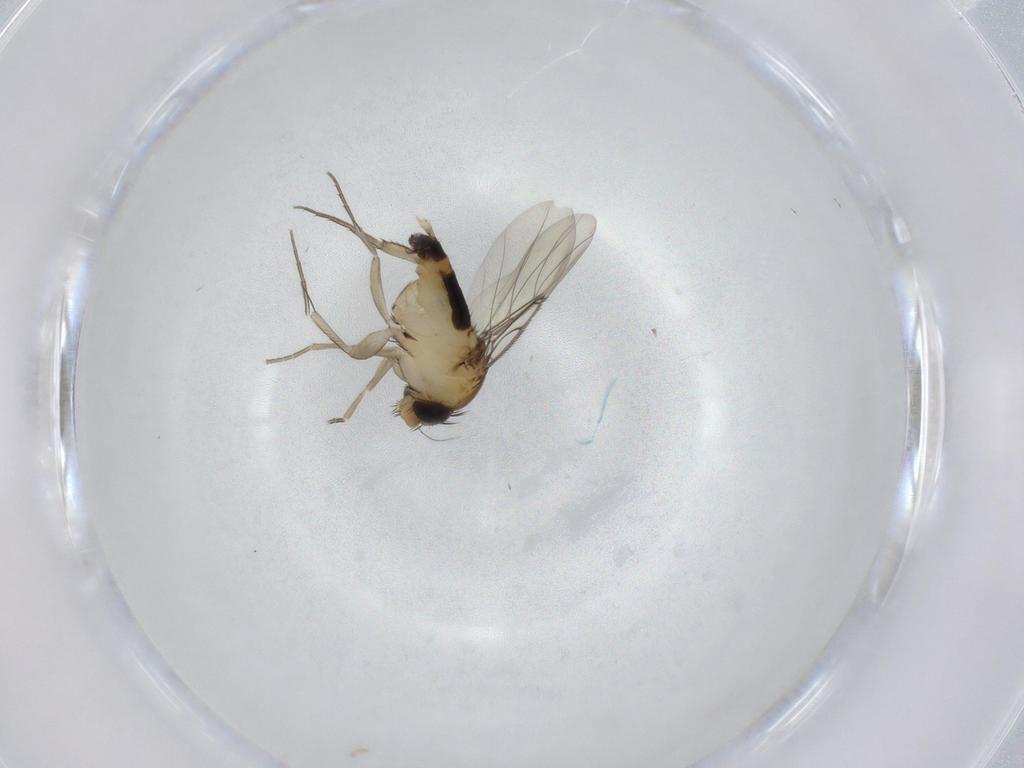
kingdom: Animalia
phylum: Arthropoda
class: Insecta
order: Diptera
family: Phoridae
